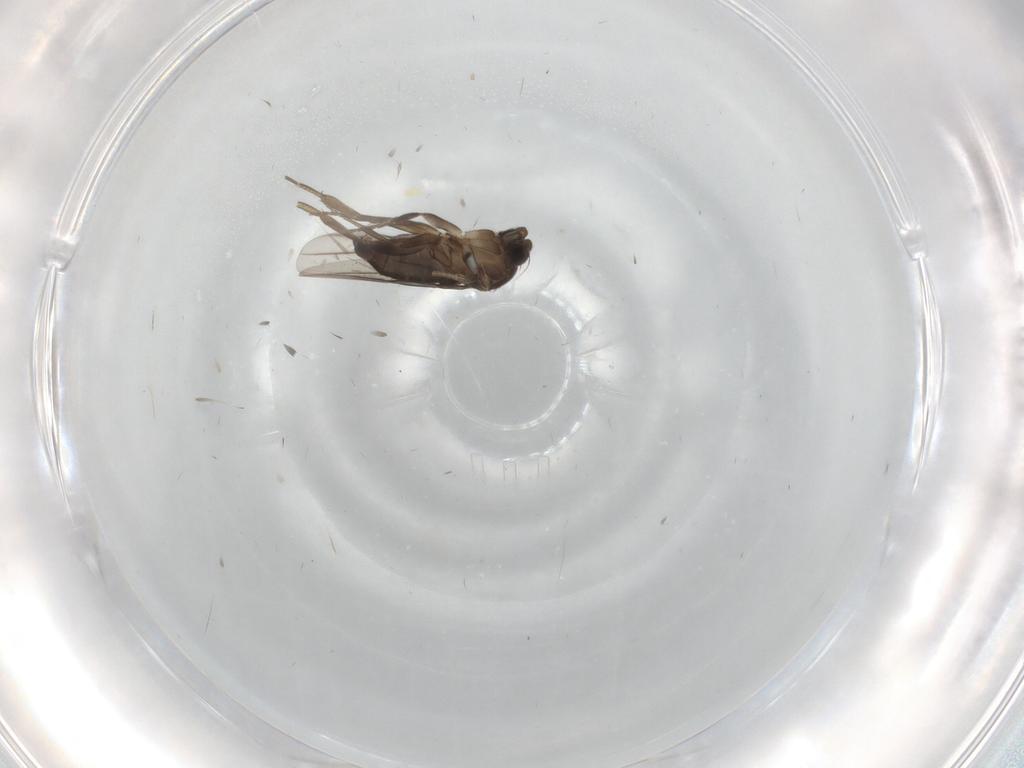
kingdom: Animalia
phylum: Arthropoda
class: Insecta
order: Diptera
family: Phoridae
